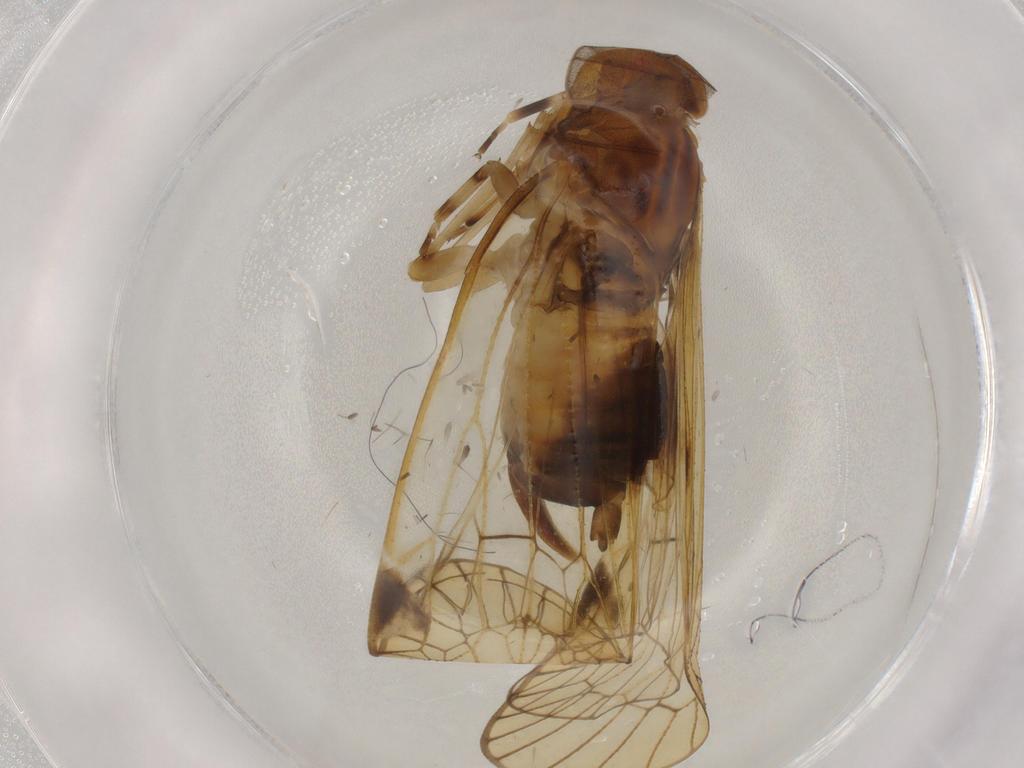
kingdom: Animalia
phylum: Arthropoda
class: Insecta
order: Hemiptera
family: Cixiidae
